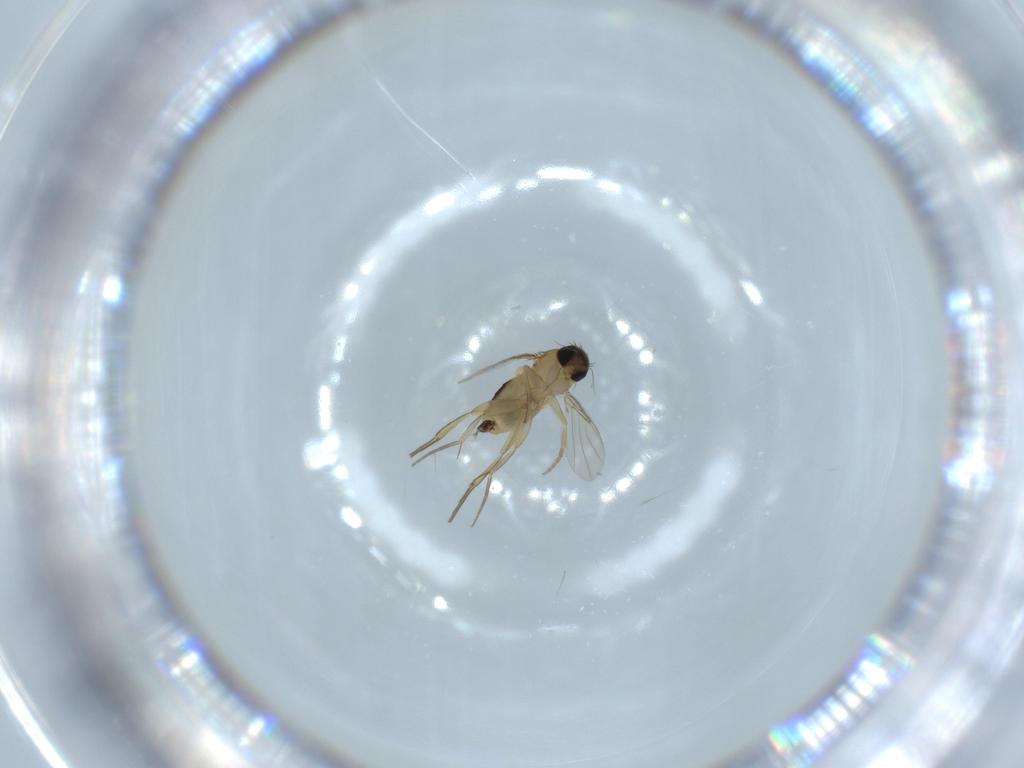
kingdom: Animalia
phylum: Arthropoda
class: Insecta
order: Diptera
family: Phoridae
